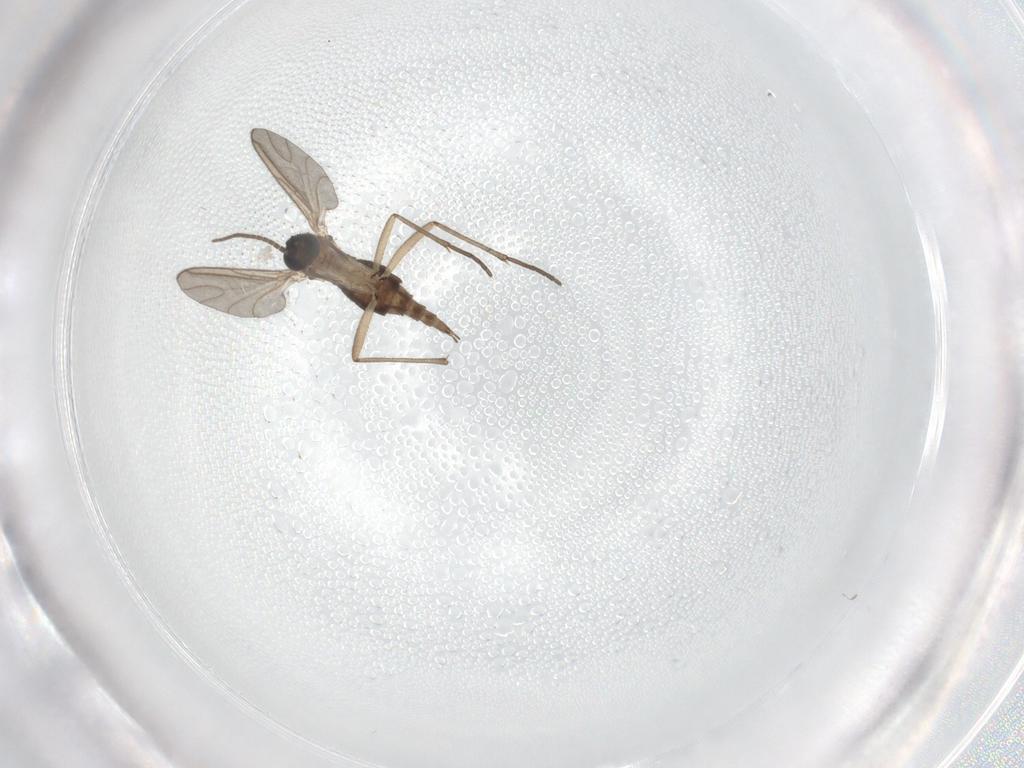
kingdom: Animalia
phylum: Arthropoda
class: Insecta
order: Diptera
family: Sciaridae
